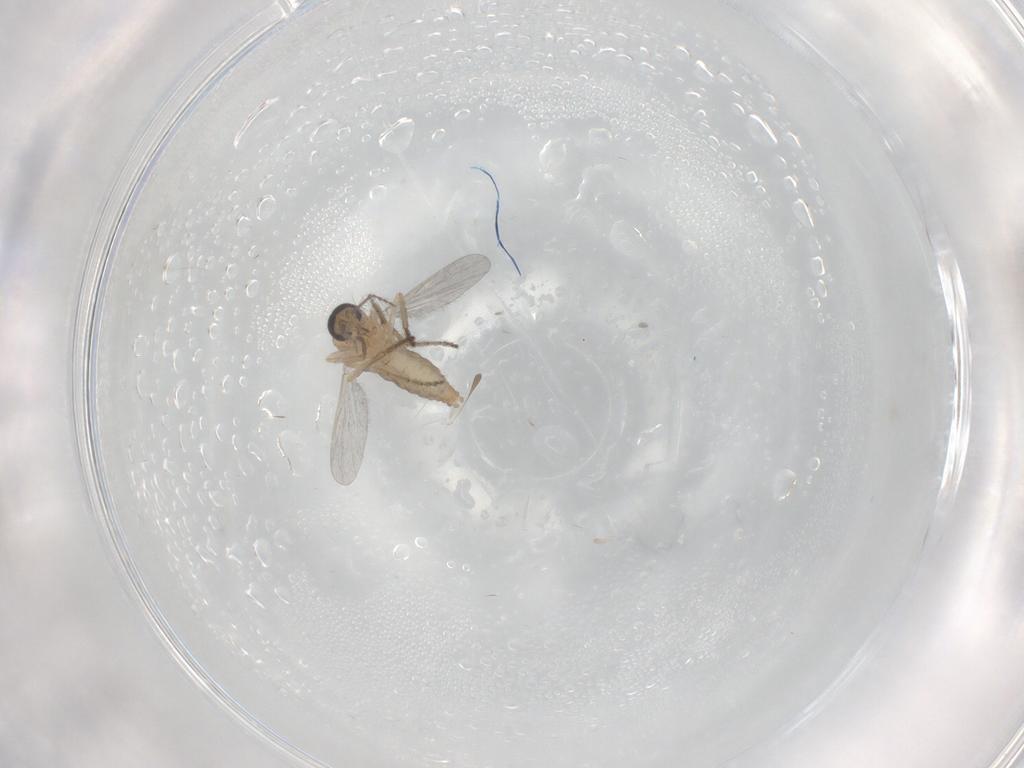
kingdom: Animalia
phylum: Arthropoda
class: Insecta
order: Diptera
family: Ceratopogonidae
